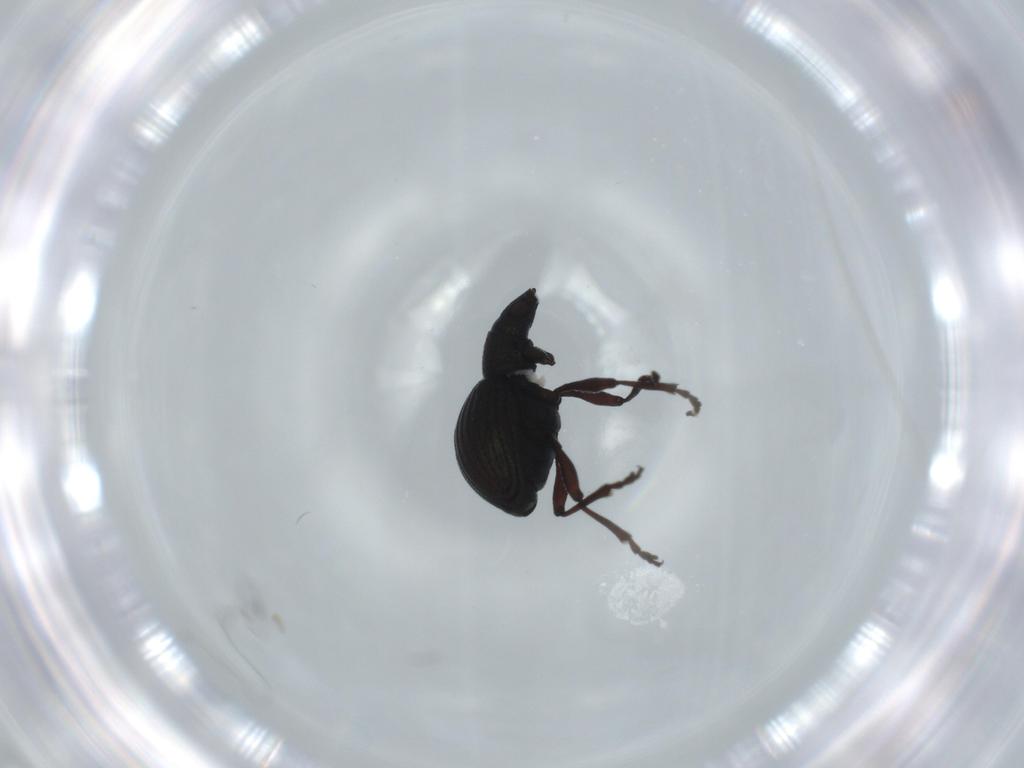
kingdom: Animalia
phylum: Arthropoda
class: Insecta
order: Coleoptera
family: Brentidae
